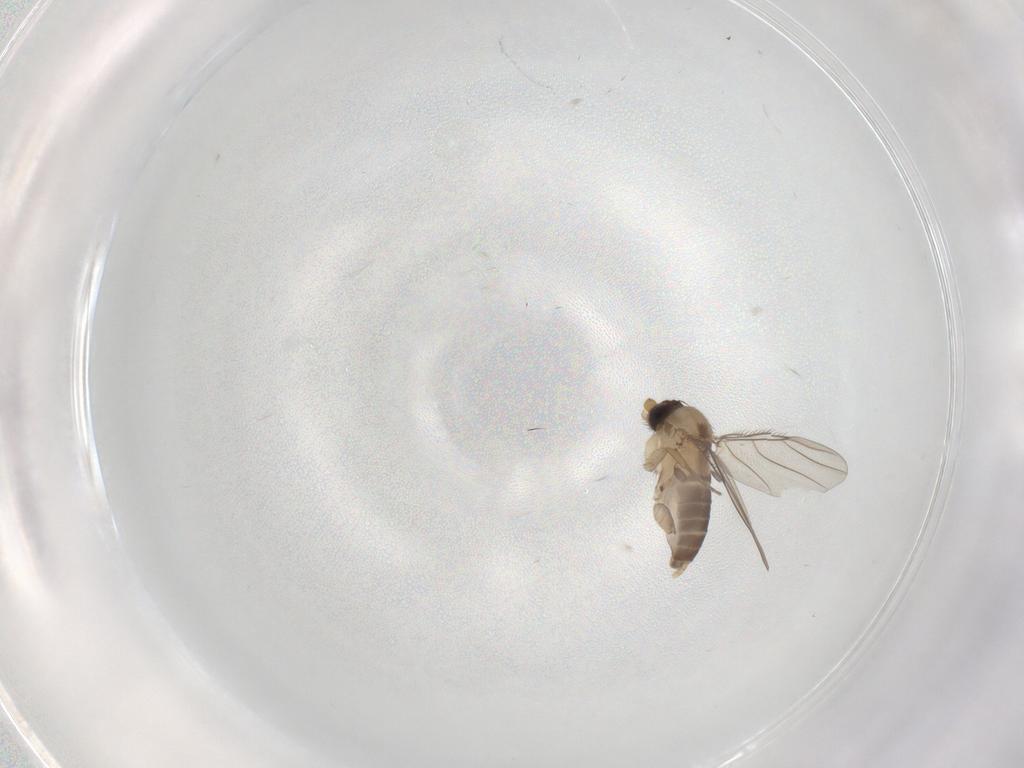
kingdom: Animalia
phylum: Arthropoda
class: Insecta
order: Diptera
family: Phoridae
